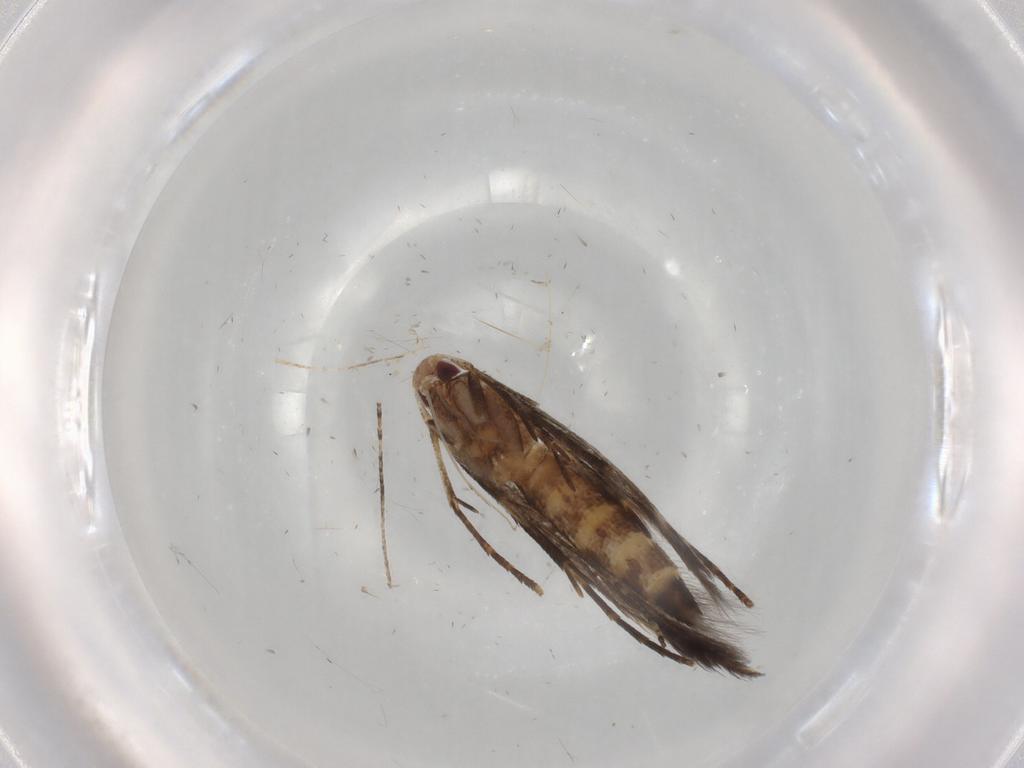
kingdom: Animalia
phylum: Arthropoda
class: Insecta
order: Lepidoptera
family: Cosmopterigidae
